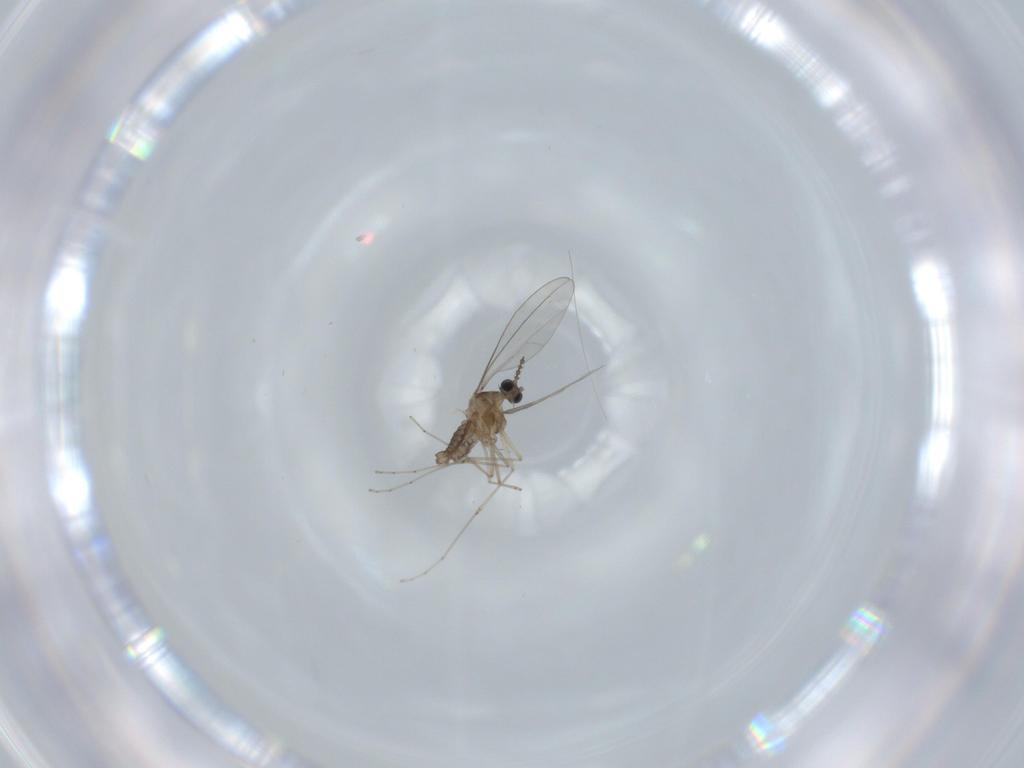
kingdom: Animalia
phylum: Arthropoda
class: Insecta
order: Diptera
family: Cecidomyiidae
